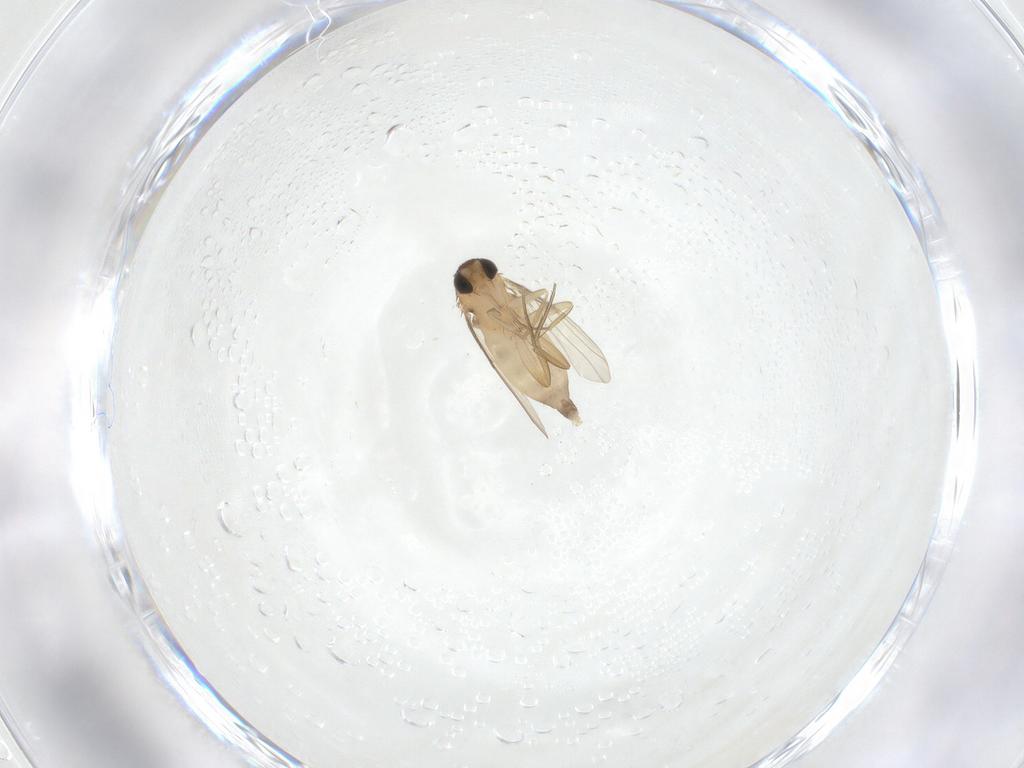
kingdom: Animalia
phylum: Arthropoda
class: Insecta
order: Diptera
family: Phoridae
